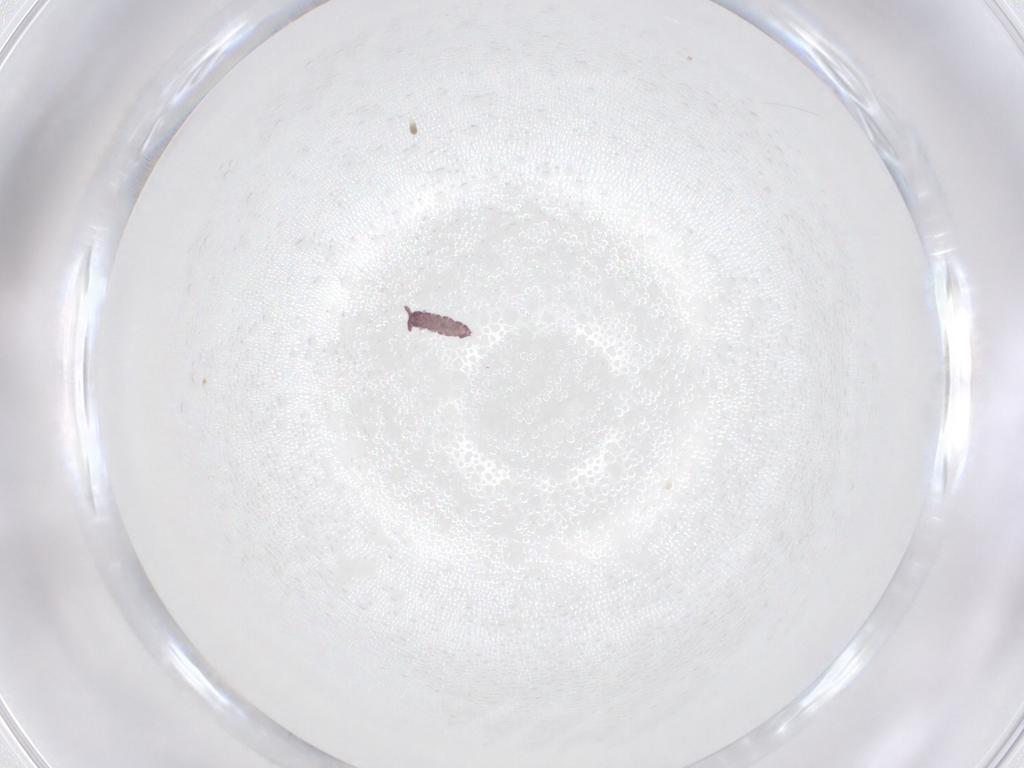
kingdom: Animalia
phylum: Arthropoda
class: Collembola
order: Poduromorpha
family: Hypogastruridae
